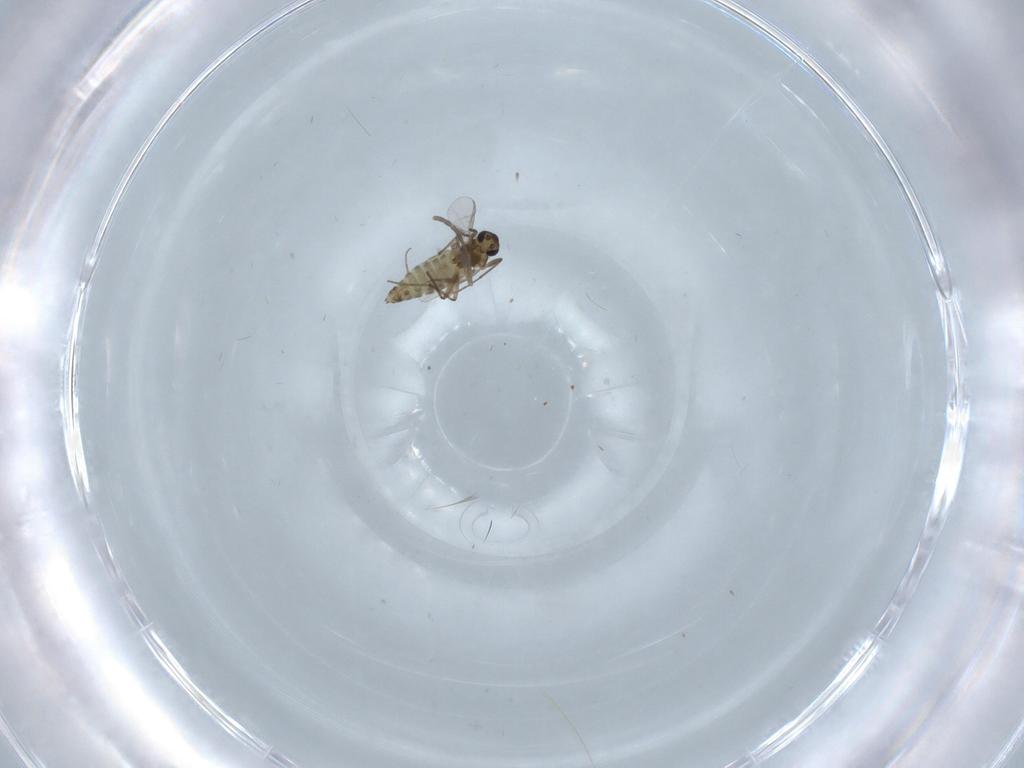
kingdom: Animalia
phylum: Arthropoda
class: Insecta
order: Diptera
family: Chironomidae
